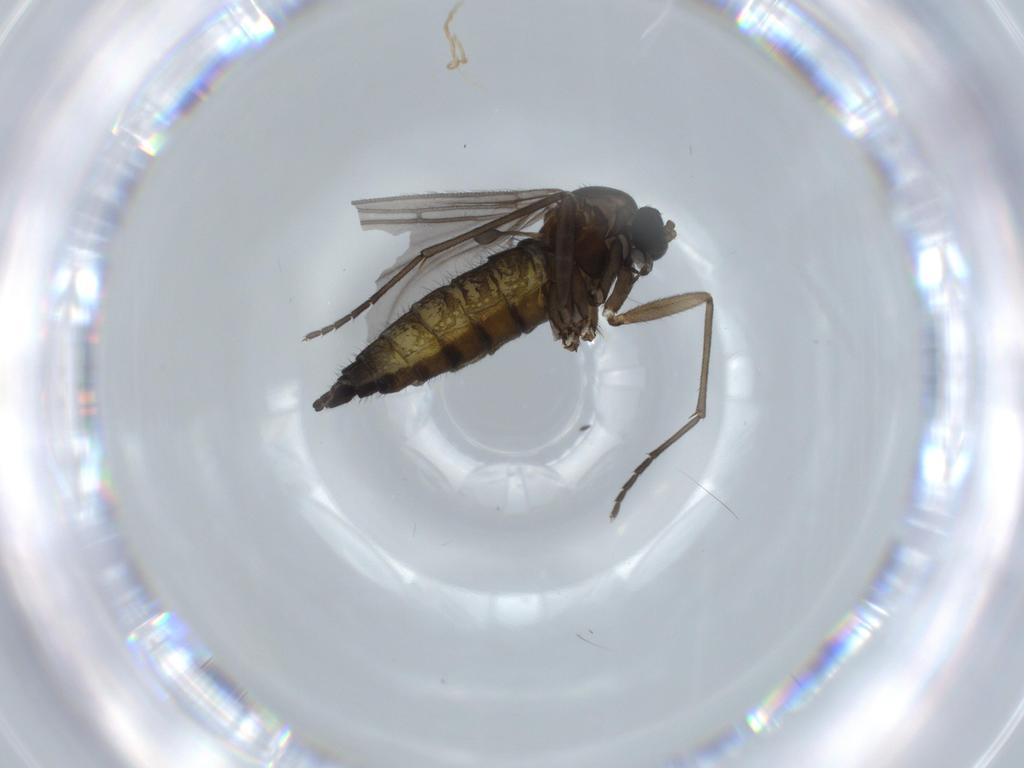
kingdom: Animalia
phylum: Arthropoda
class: Insecta
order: Diptera
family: Sciaridae
